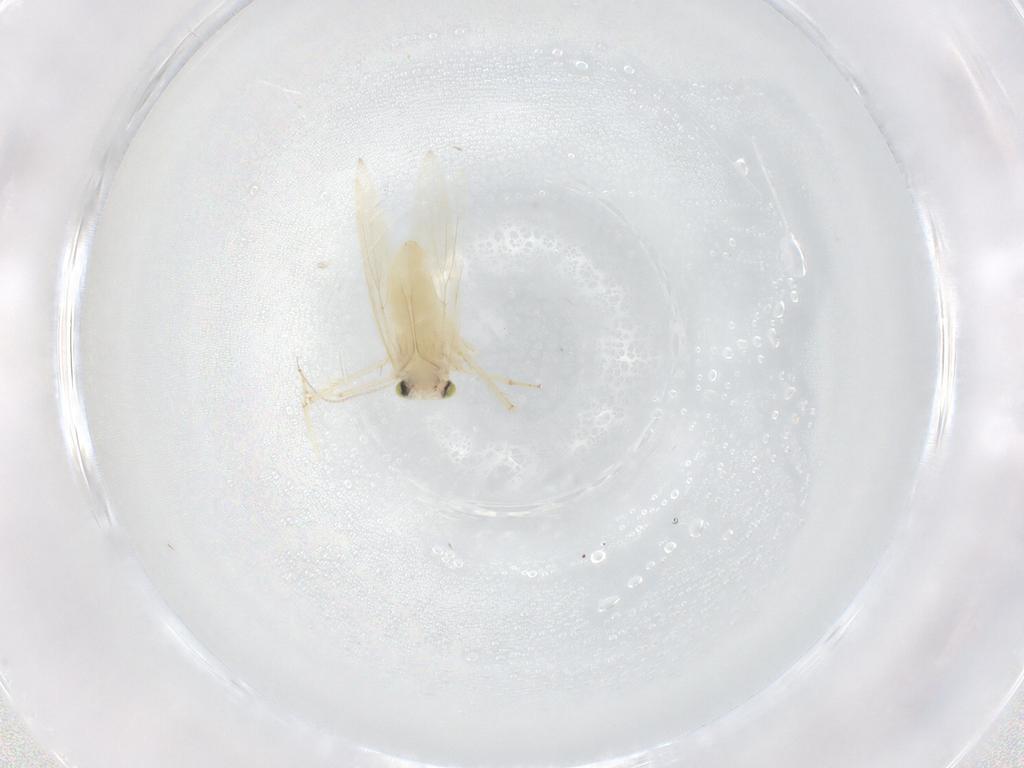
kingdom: Animalia
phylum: Arthropoda
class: Insecta
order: Psocodea
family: Lepidopsocidae
